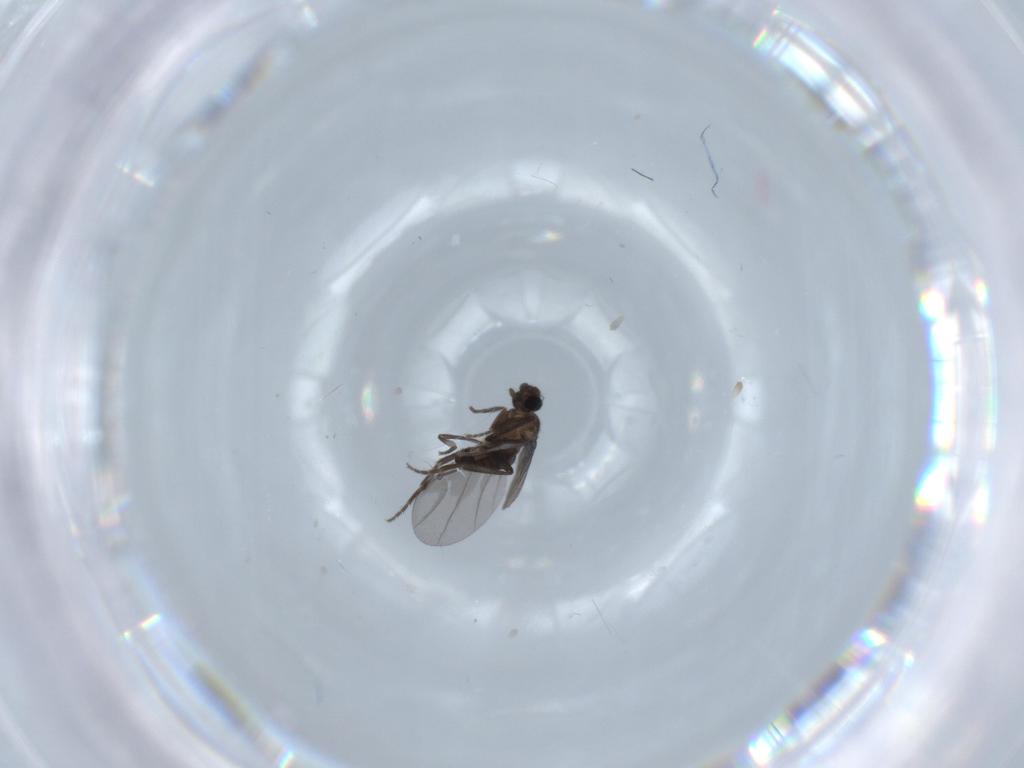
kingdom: Animalia
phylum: Arthropoda
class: Insecta
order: Diptera
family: Phoridae
